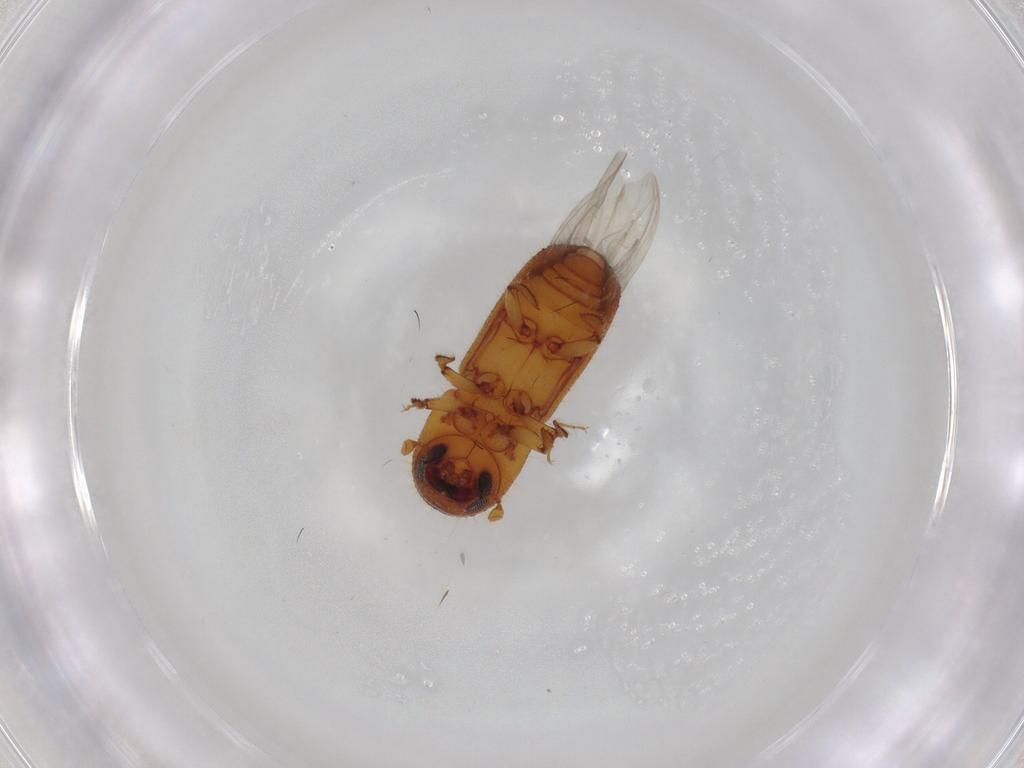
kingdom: Animalia
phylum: Arthropoda
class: Insecta
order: Coleoptera
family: Curculionidae
